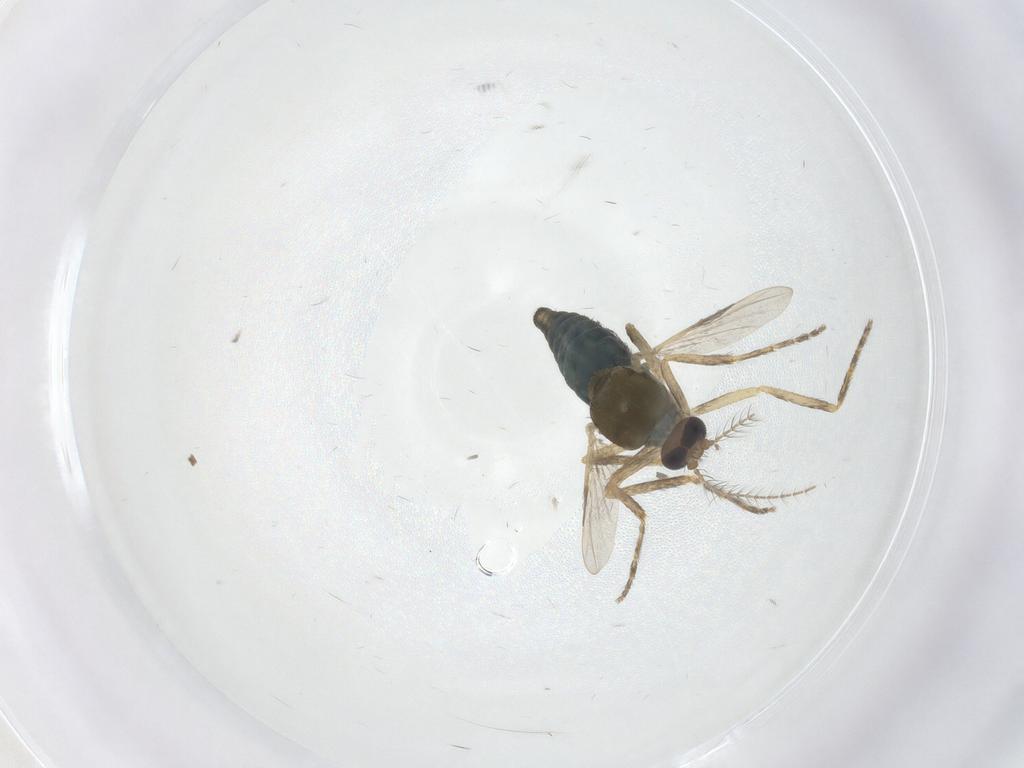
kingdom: Animalia
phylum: Arthropoda
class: Insecta
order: Diptera
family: Ceratopogonidae
